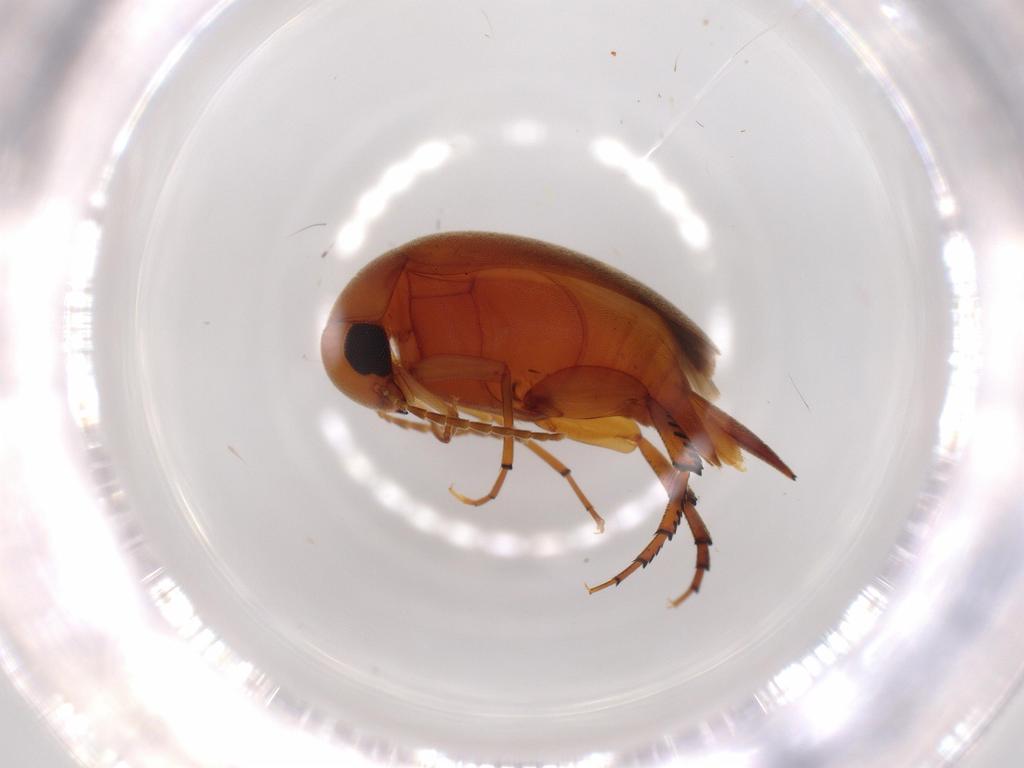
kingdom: Animalia
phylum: Arthropoda
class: Insecta
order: Coleoptera
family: Mordellidae
